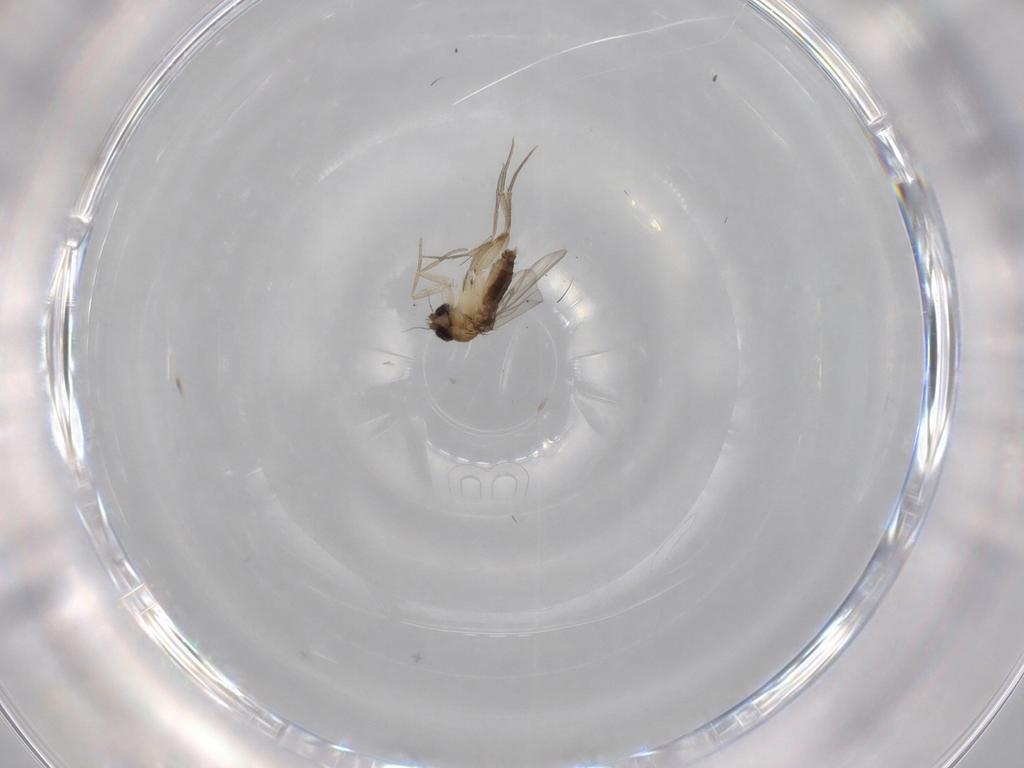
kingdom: Animalia
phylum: Arthropoda
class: Insecta
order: Diptera
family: Phoridae
